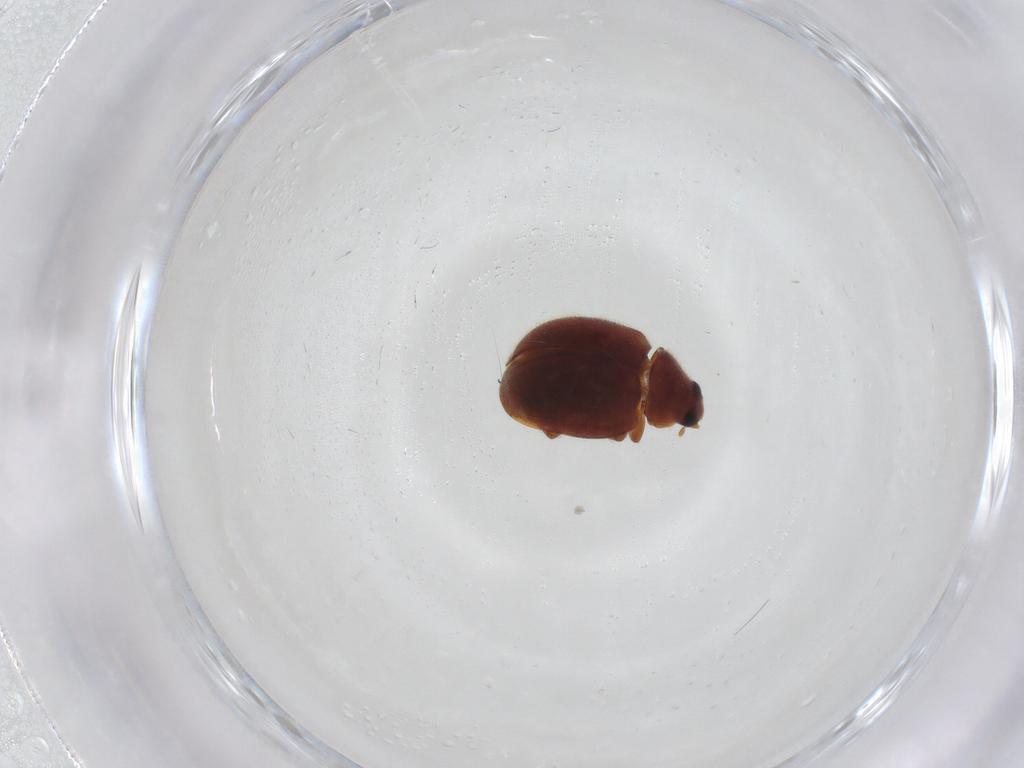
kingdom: Animalia
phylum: Arthropoda
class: Insecta
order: Coleoptera
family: Coccinellidae
